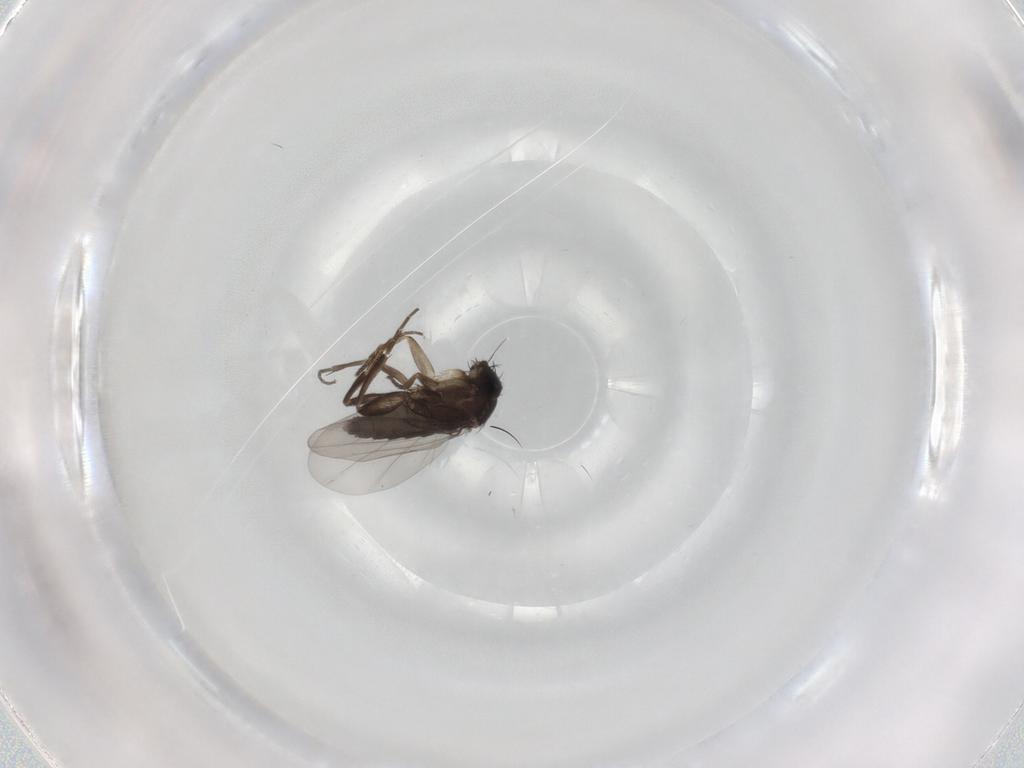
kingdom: Animalia
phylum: Arthropoda
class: Insecta
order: Diptera
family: Phoridae
